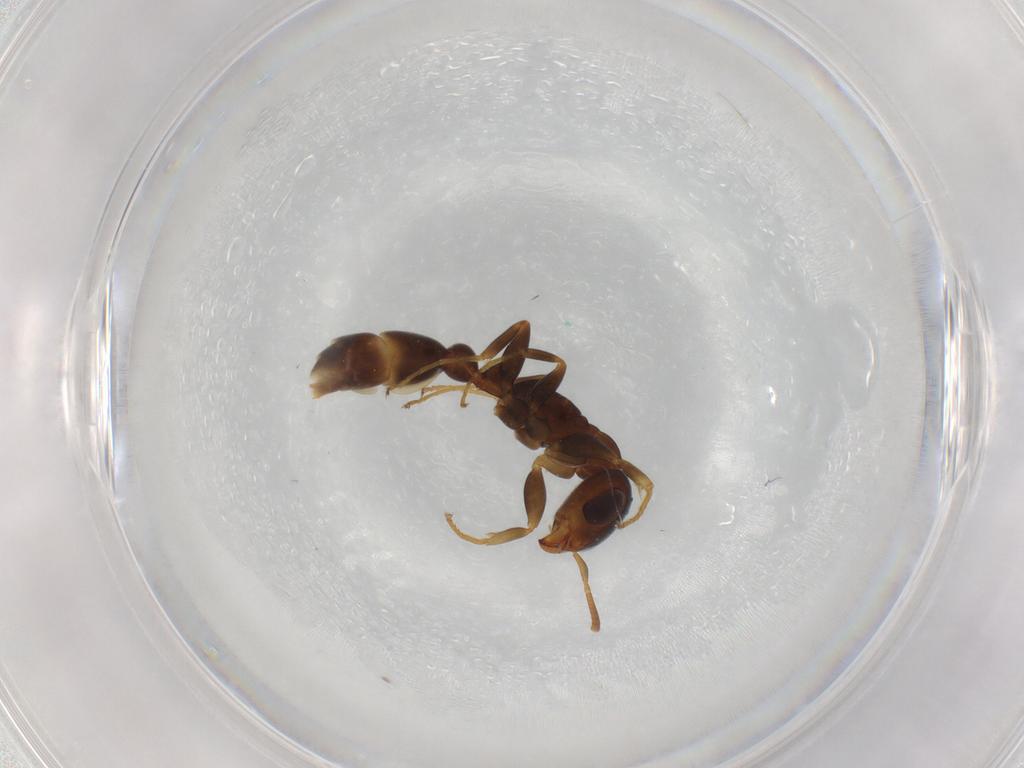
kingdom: Animalia
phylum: Arthropoda
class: Insecta
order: Hymenoptera
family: Formicidae
